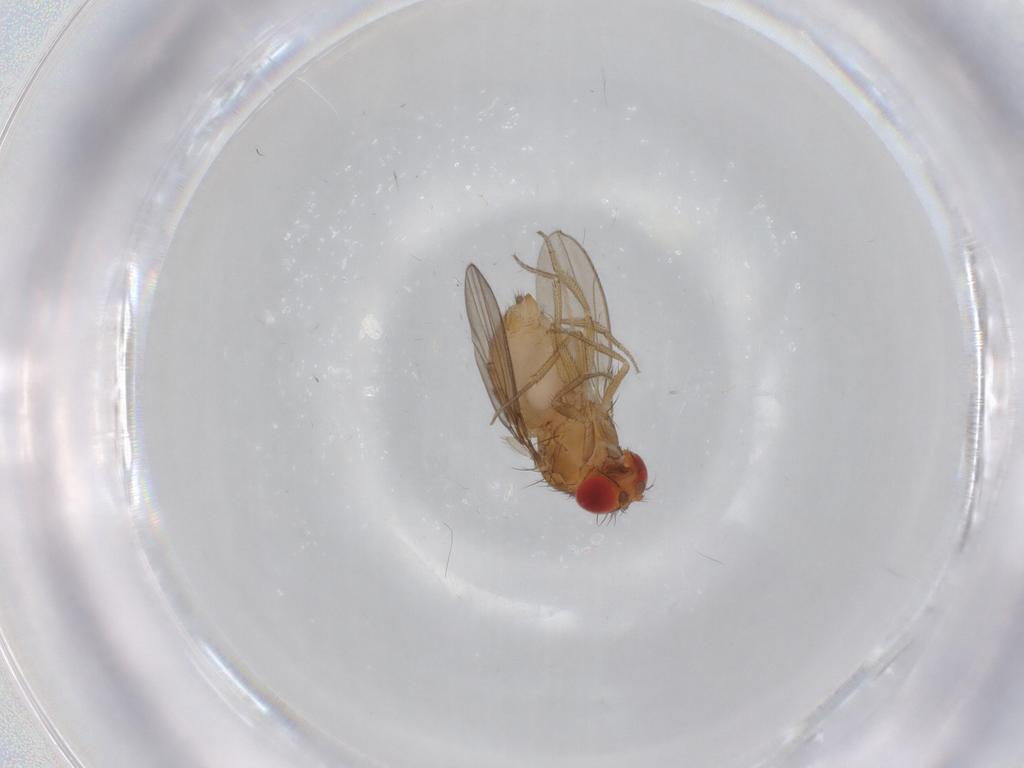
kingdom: Animalia
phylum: Arthropoda
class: Insecta
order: Diptera
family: Drosophilidae
